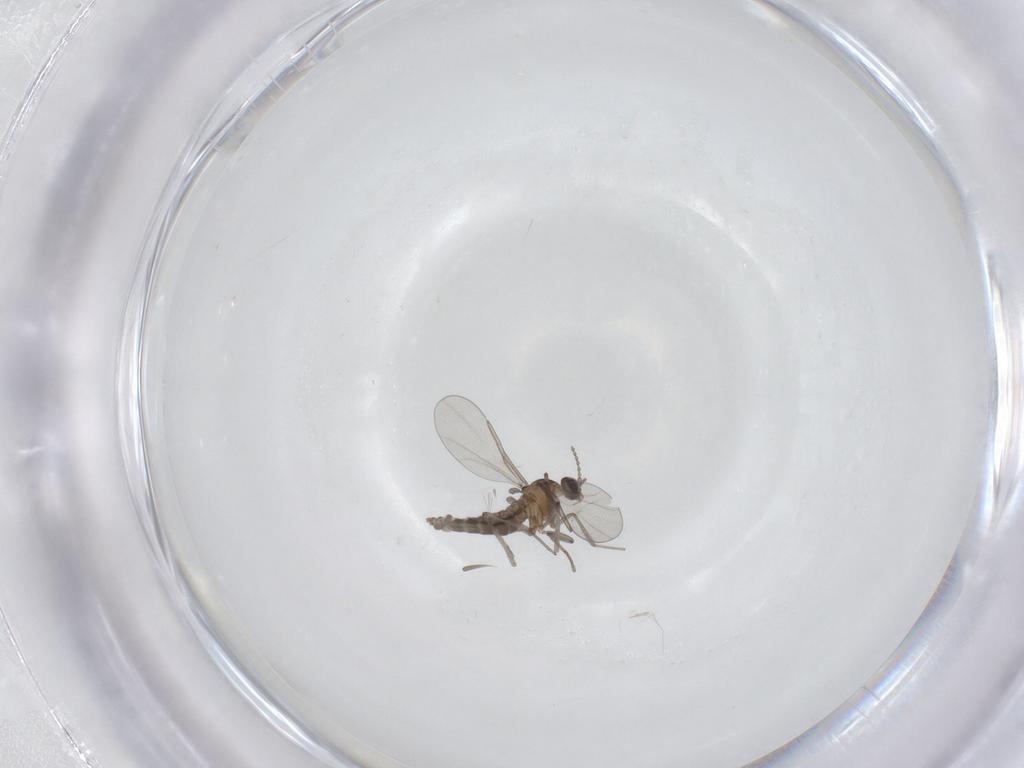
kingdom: Animalia
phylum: Arthropoda
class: Insecta
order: Diptera
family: Cecidomyiidae
